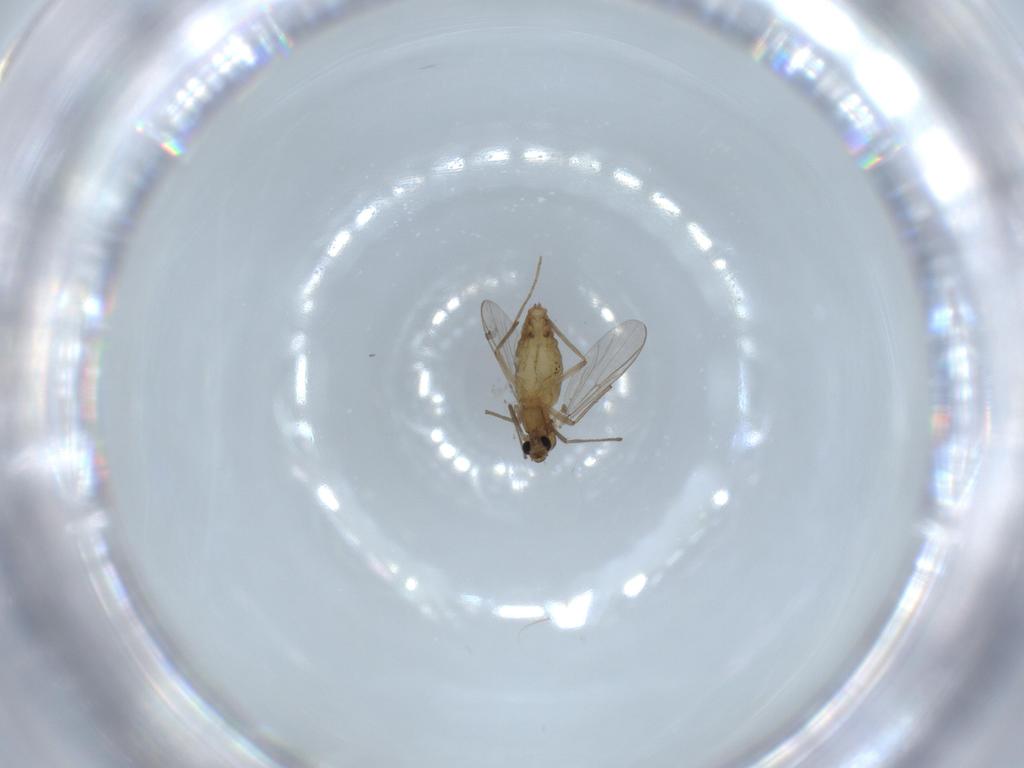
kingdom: Animalia
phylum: Arthropoda
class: Insecta
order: Diptera
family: Chironomidae
